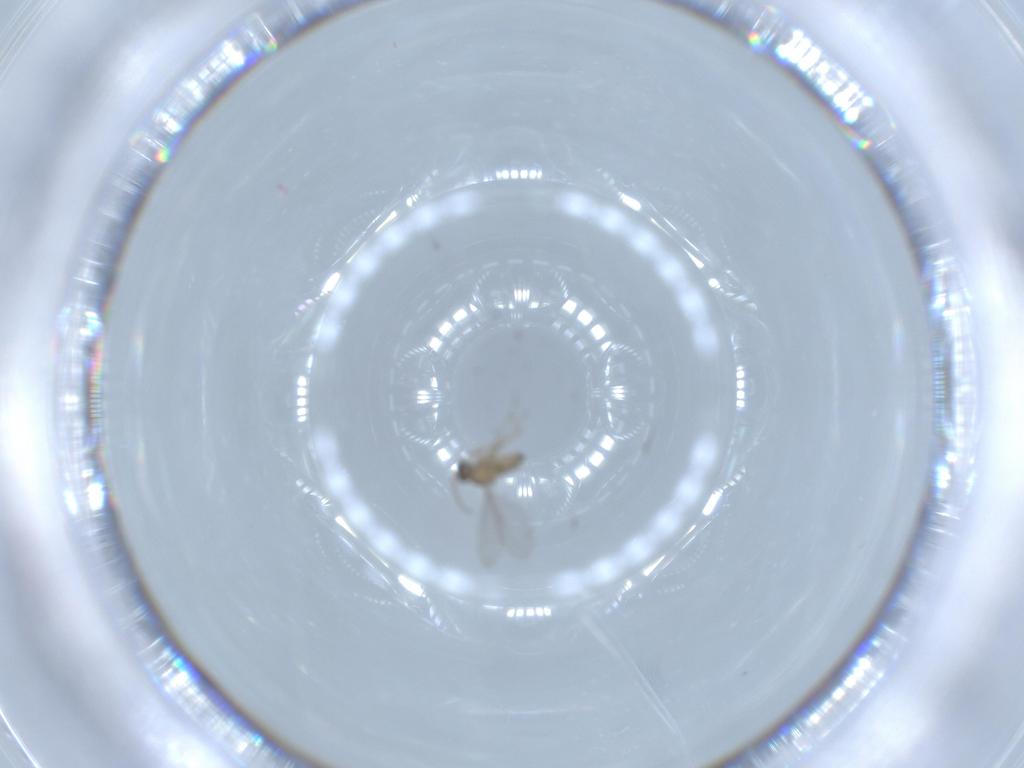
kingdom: Animalia
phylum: Arthropoda
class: Insecta
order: Diptera
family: Cecidomyiidae
